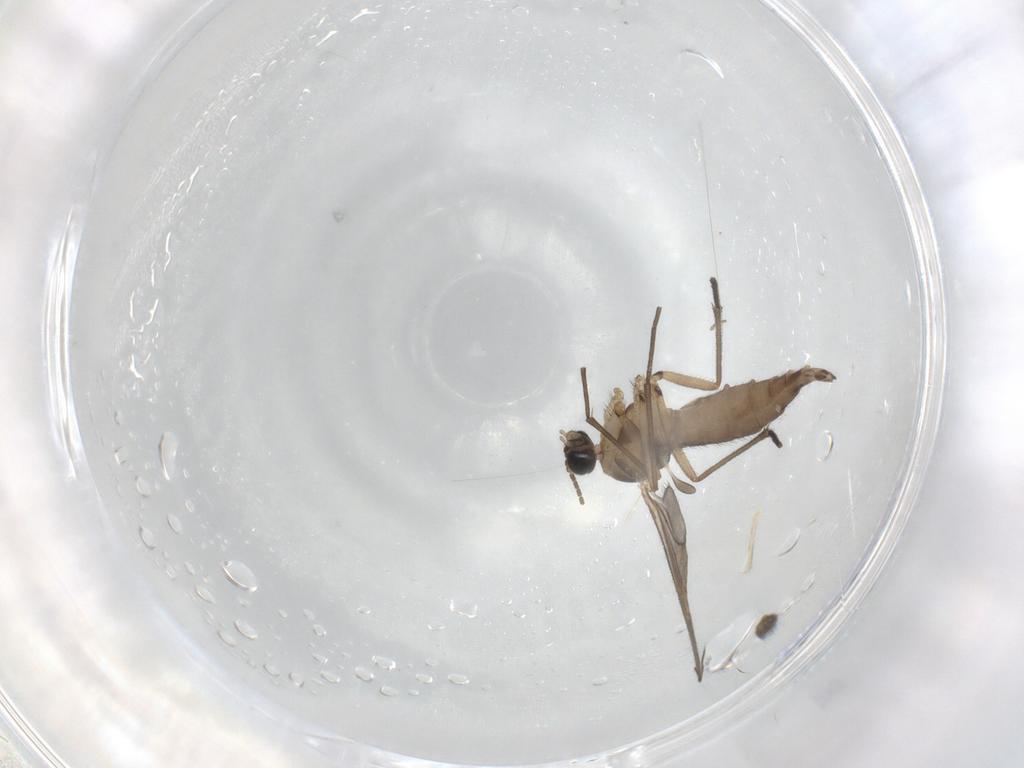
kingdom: Animalia
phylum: Arthropoda
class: Insecta
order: Diptera
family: Sciaridae
